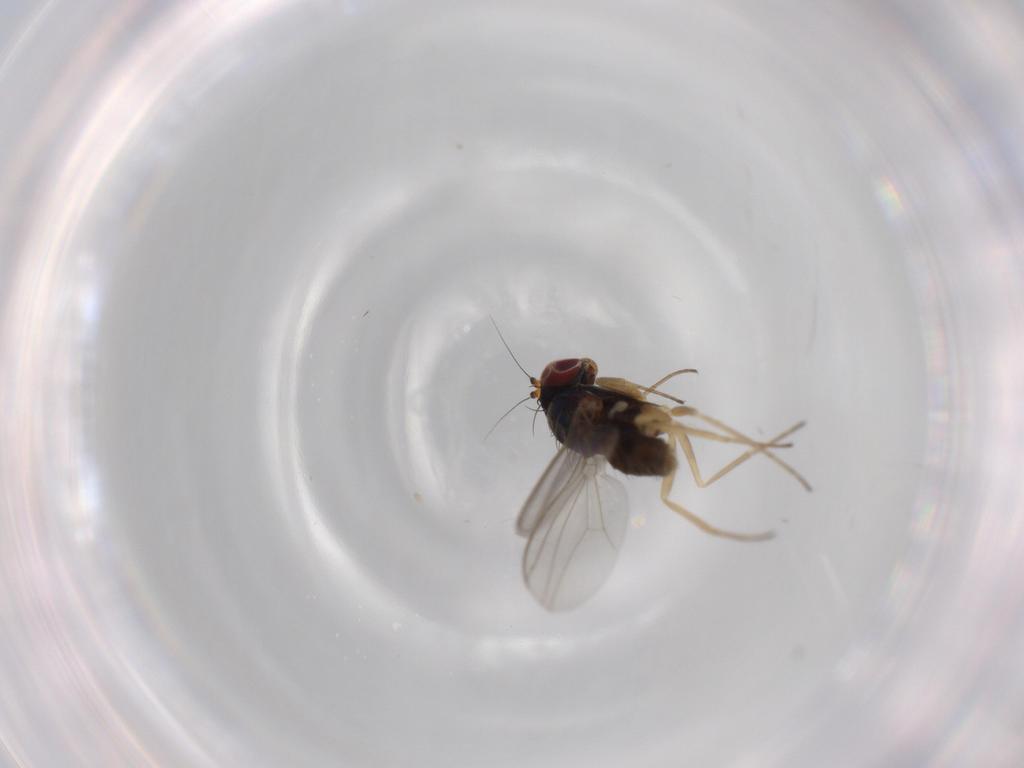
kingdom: Animalia
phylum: Arthropoda
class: Insecta
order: Diptera
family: Dolichopodidae
